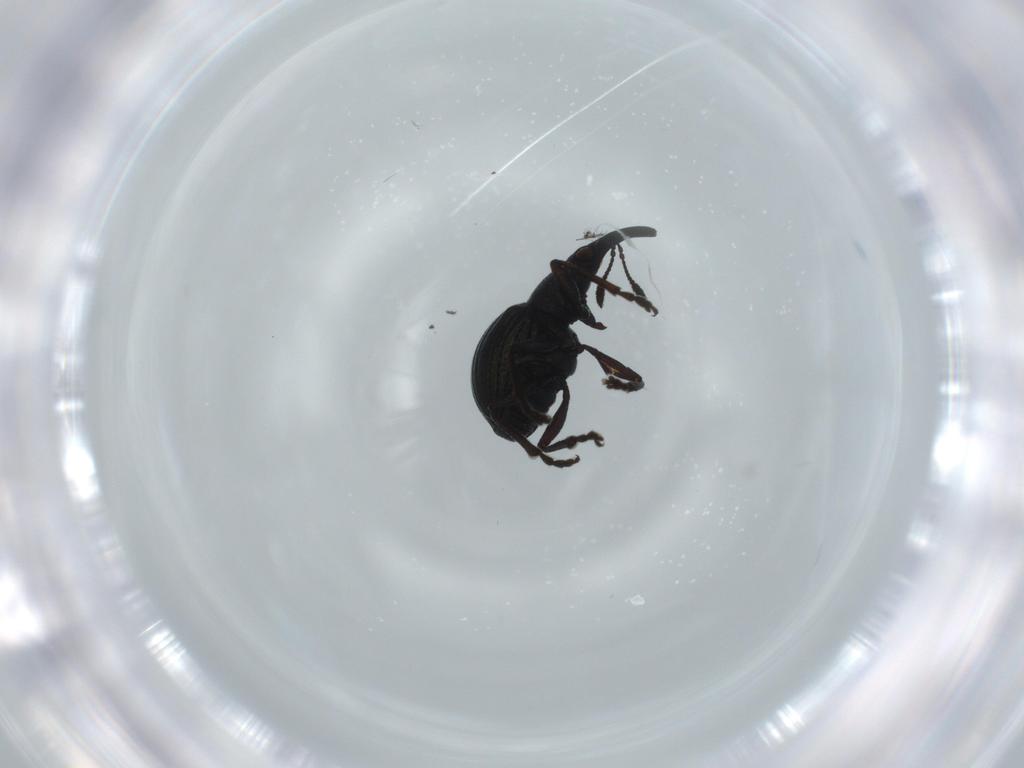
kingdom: Animalia
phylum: Arthropoda
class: Insecta
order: Coleoptera
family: Brentidae
